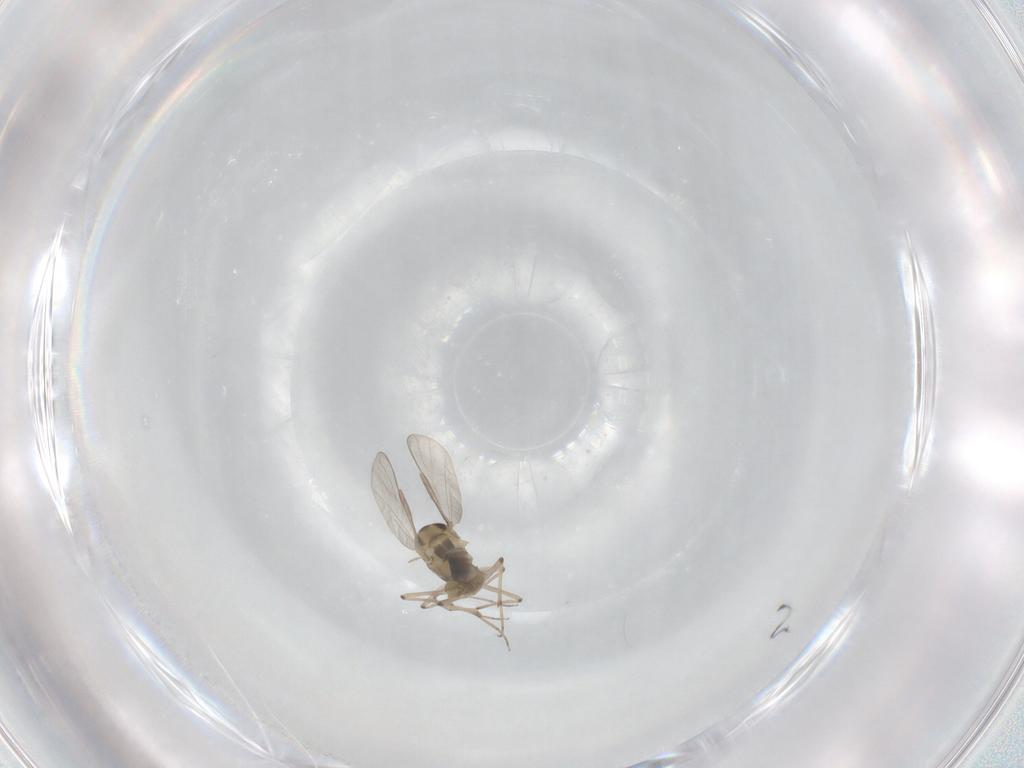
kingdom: Animalia
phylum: Arthropoda
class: Insecta
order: Diptera
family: Chironomidae
